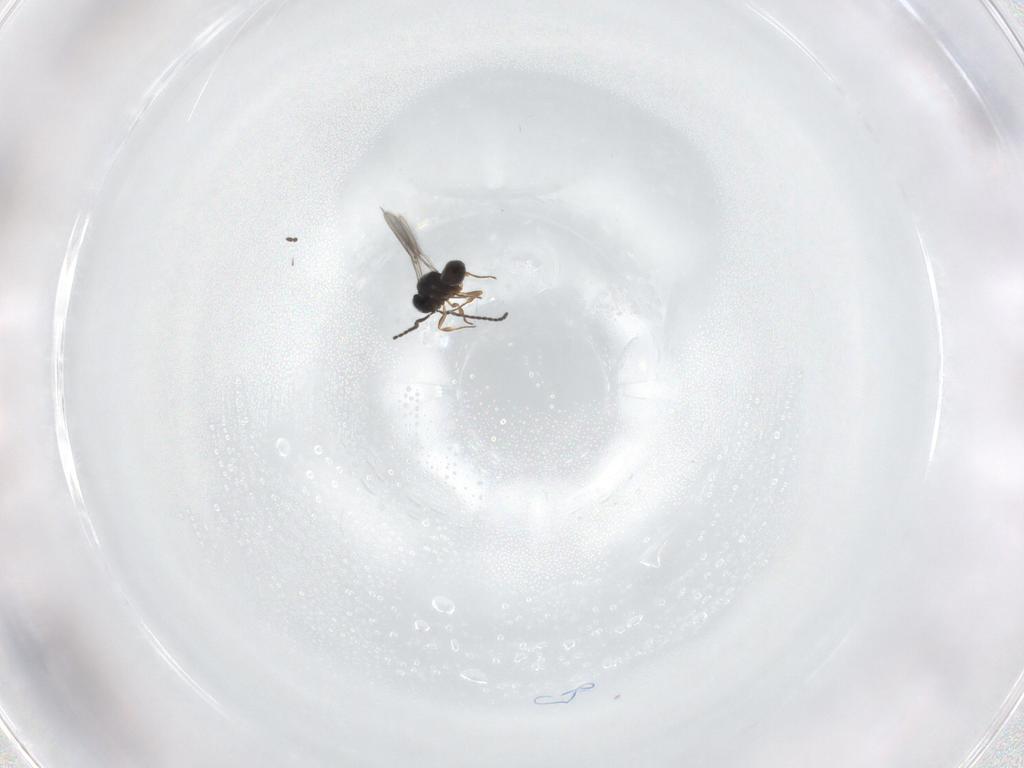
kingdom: Animalia
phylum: Arthropoda
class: Insecta
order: Hymenoptera
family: Scelionidae
